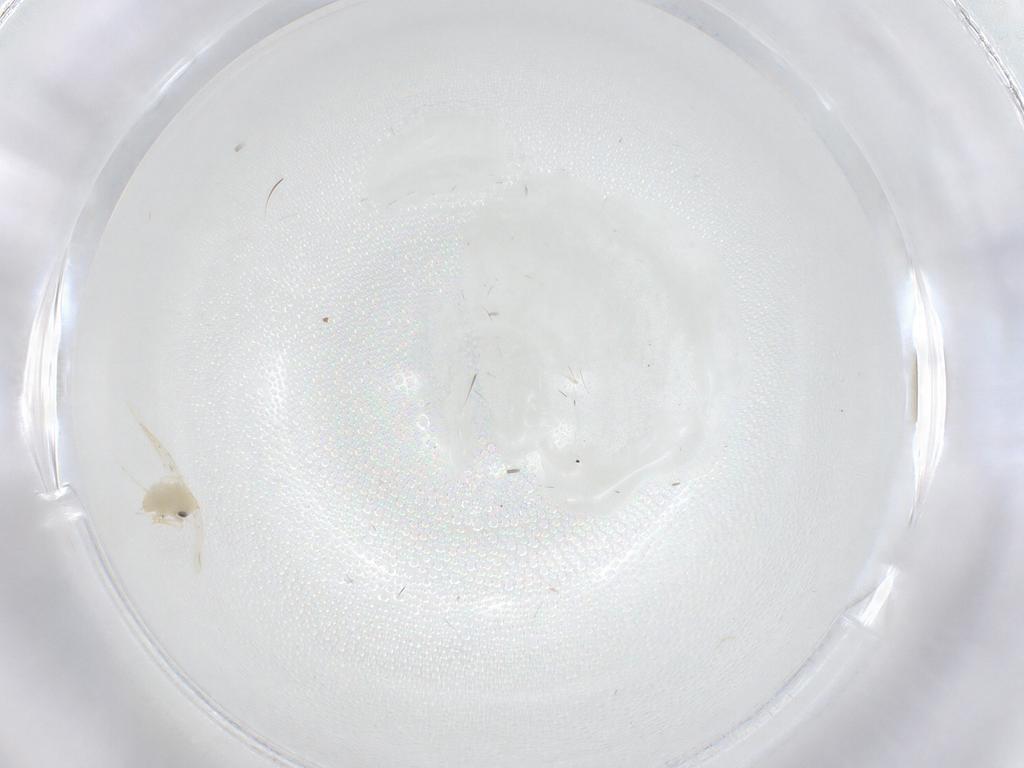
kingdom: Animalia
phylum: Arthropoda
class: Insecta
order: Hemiptera
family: Aleyrodidae
